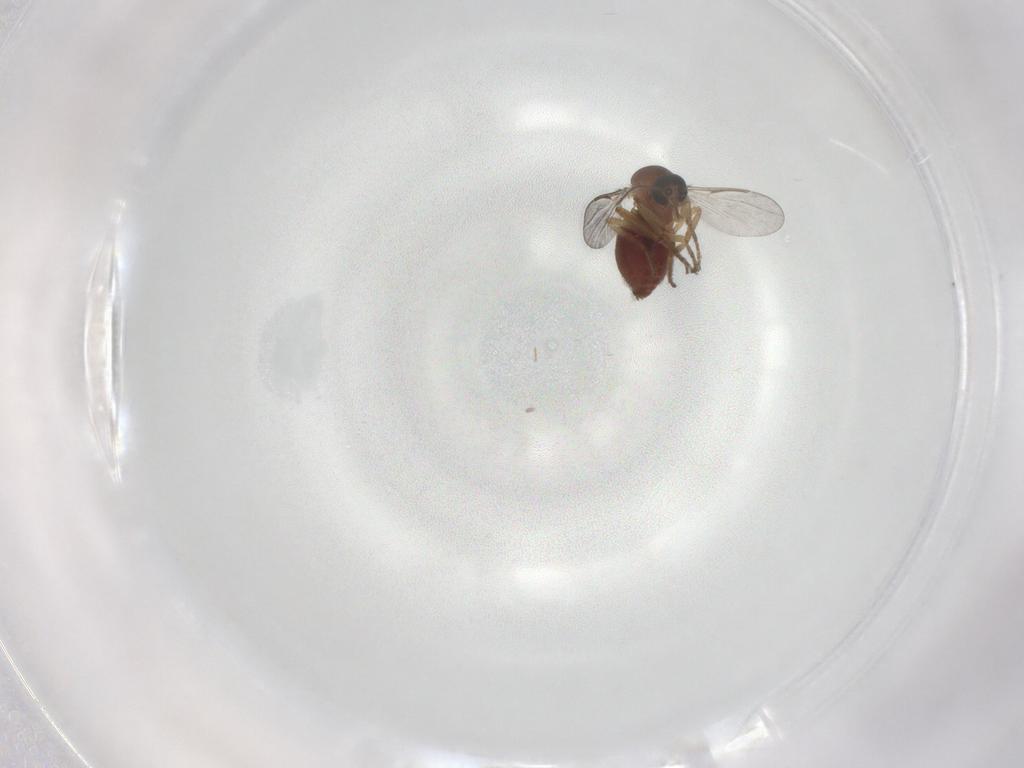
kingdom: Animalia
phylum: Arthropoda
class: Insecta
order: Diptera
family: Ceratopogonidae
